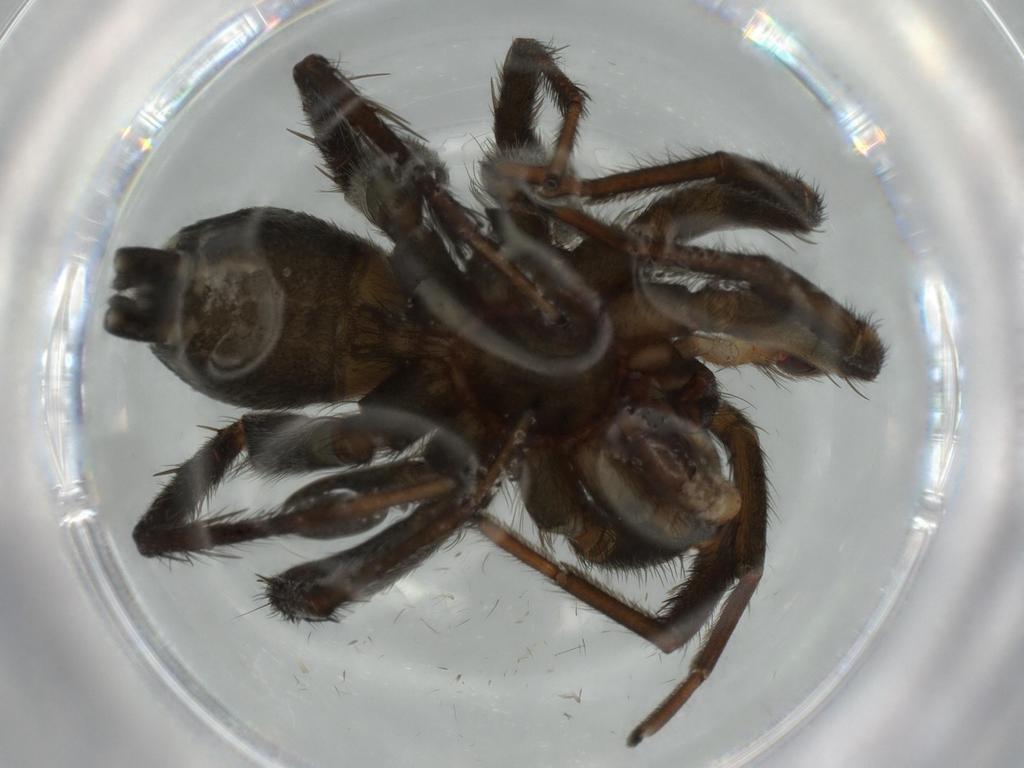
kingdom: Animalia
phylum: Arthropoda
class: Arachnida
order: Araneae
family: Gnaphosidae
